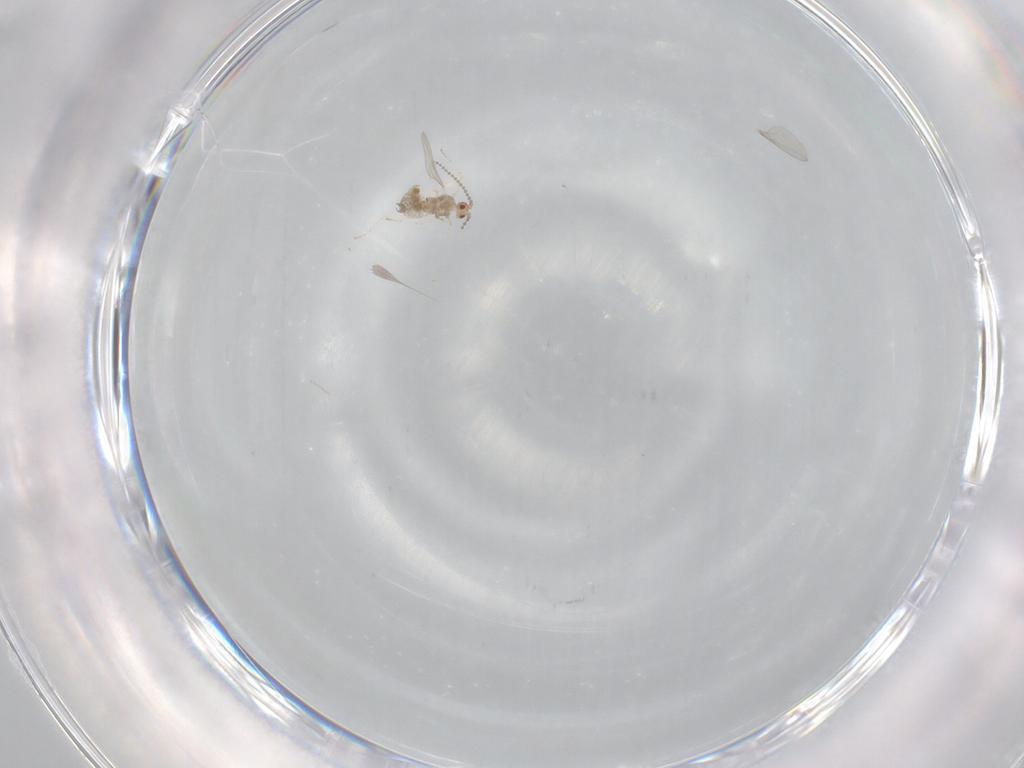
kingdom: Animalia
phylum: Arthropoda
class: Insecta
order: Diptera
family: Cecidomyiidae
